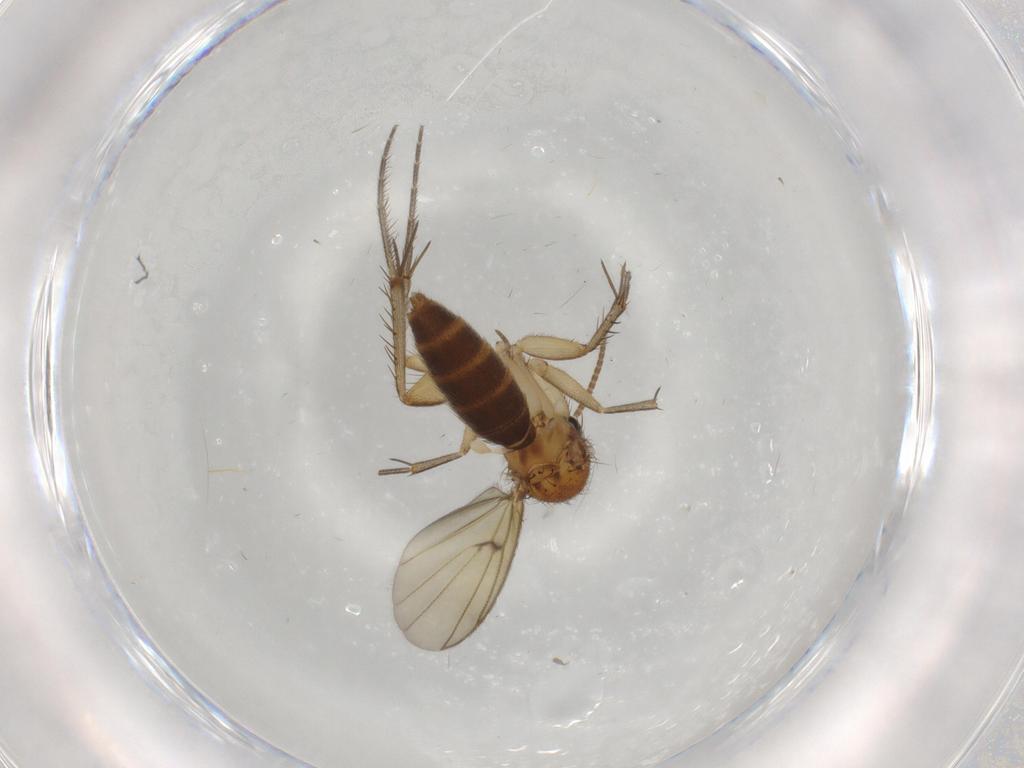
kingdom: Animalia
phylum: Arthropoda
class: Insecta
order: Diptera
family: Mycetophilidae
